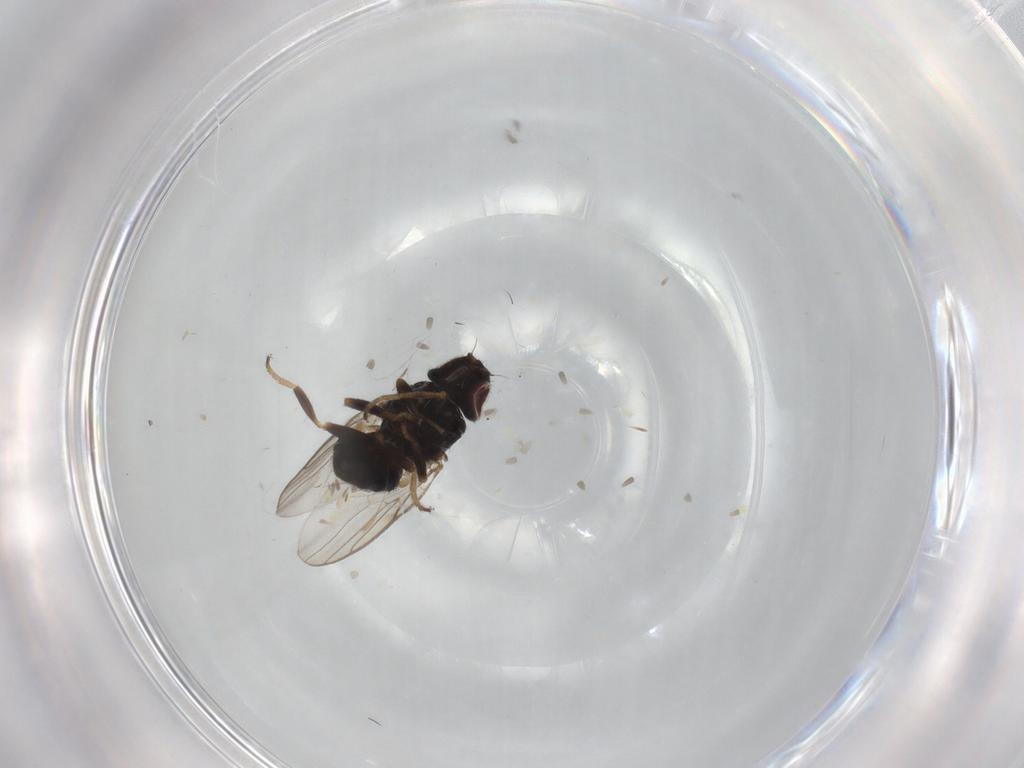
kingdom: Animalia
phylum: Arthropoda
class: Insecta
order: Diptera
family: Chloropidae
